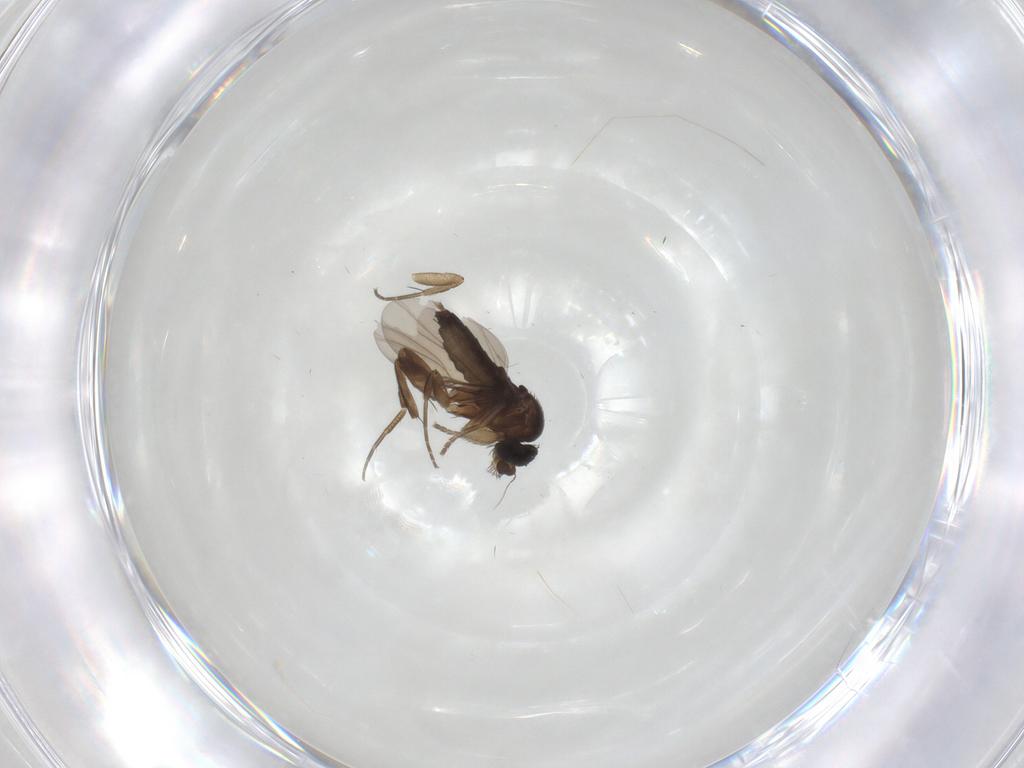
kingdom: Animalia
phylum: Arthropoda
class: Insecta
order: Diptera
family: Phoridae
